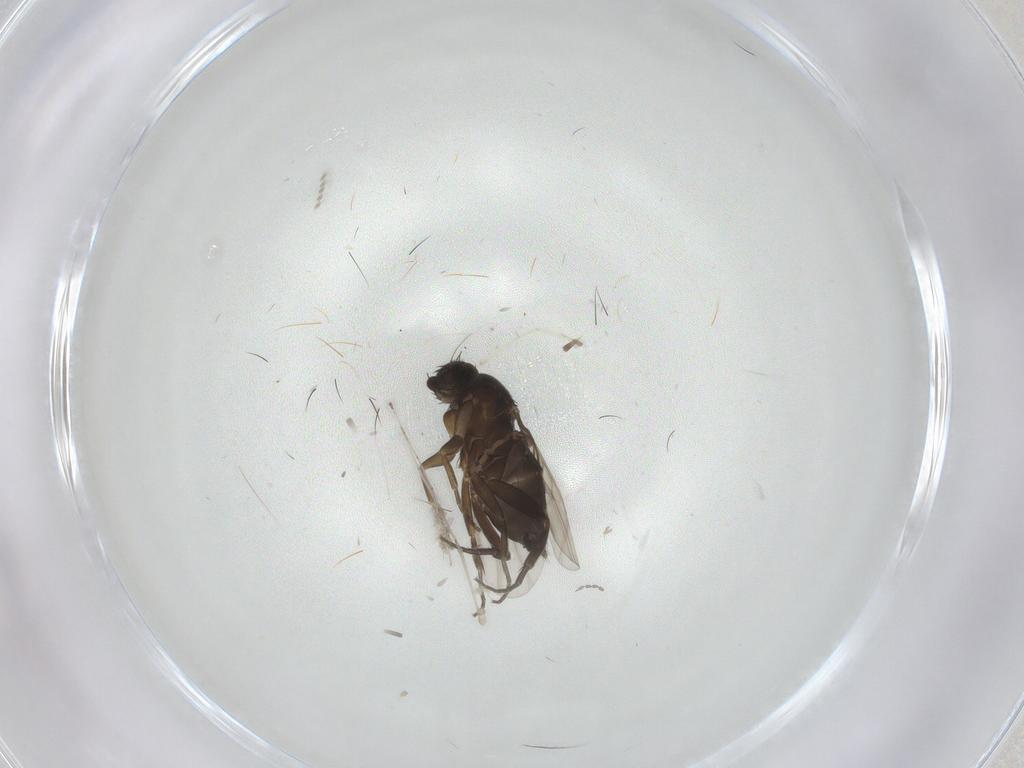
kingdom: Animalia
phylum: Arthropoda
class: Insecta
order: Diptera
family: Phoridae
